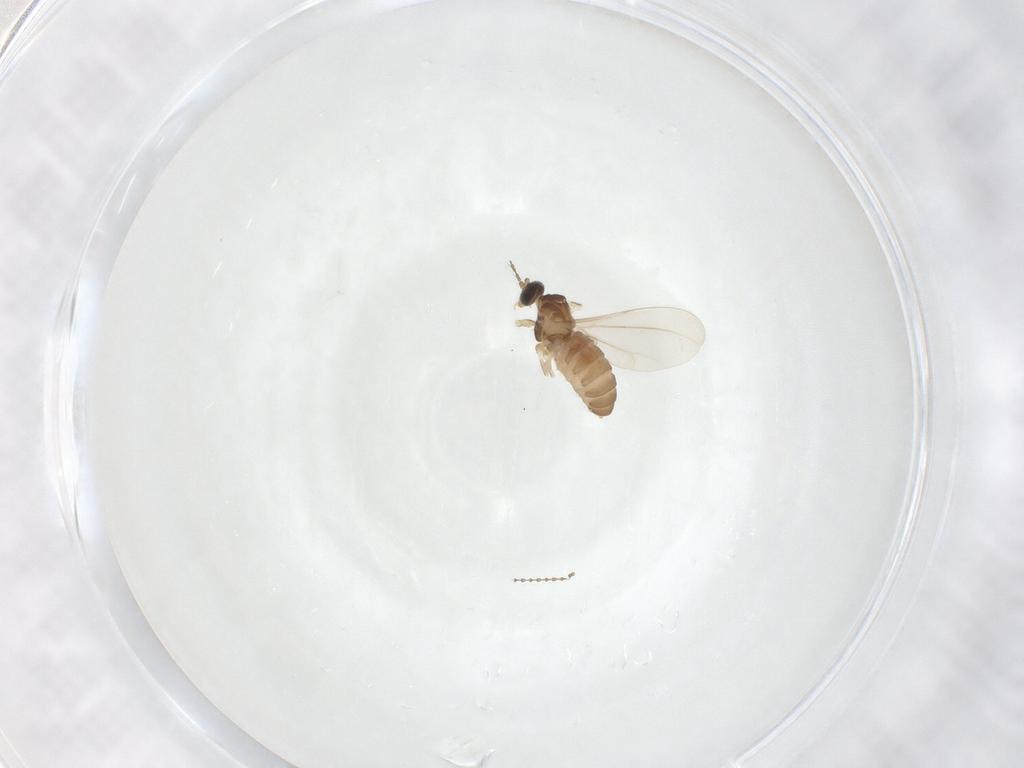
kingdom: Animalia
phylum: Arthropoda
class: Insecta
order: Diptera
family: Cecidomyiidae
